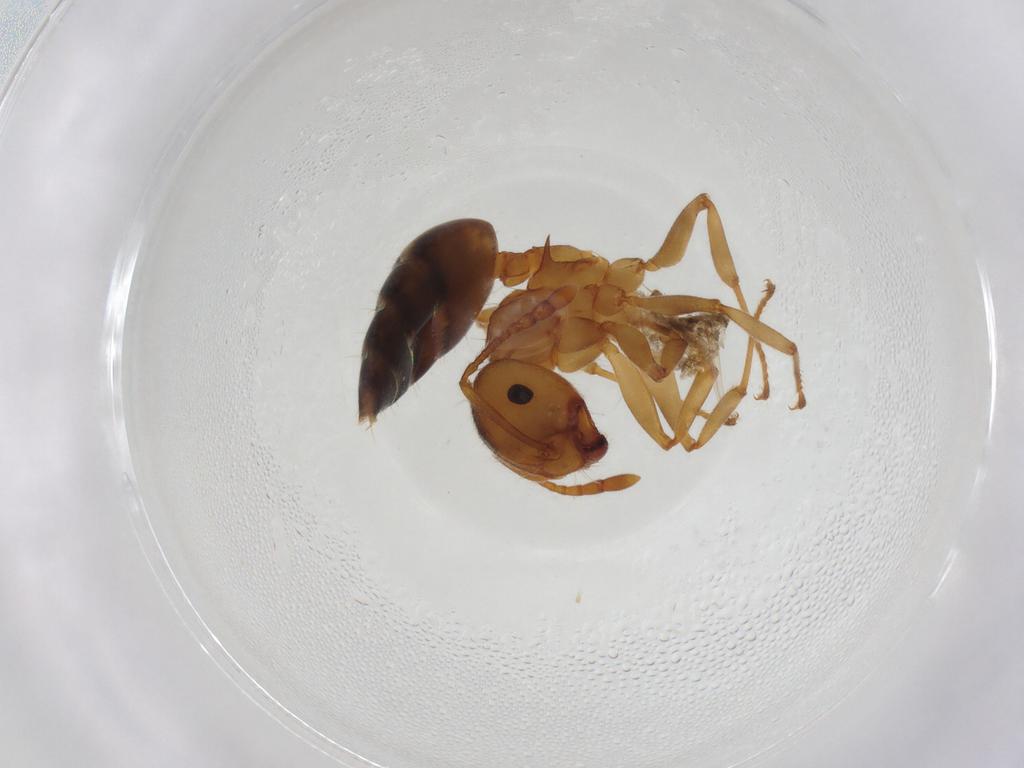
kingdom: Animalia
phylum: Arthropoda
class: Insecta
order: Hymenoptera
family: Formicidae
